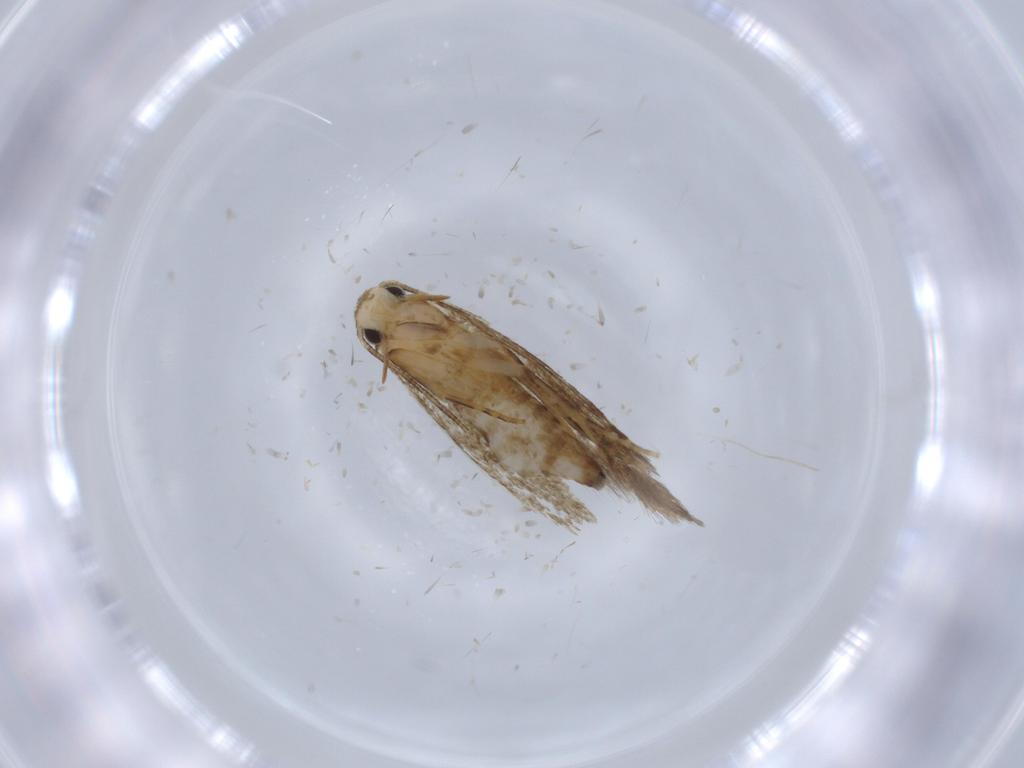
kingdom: Animalia
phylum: Arthropoda
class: Insecta
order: Lepidoptera
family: Tineidae
